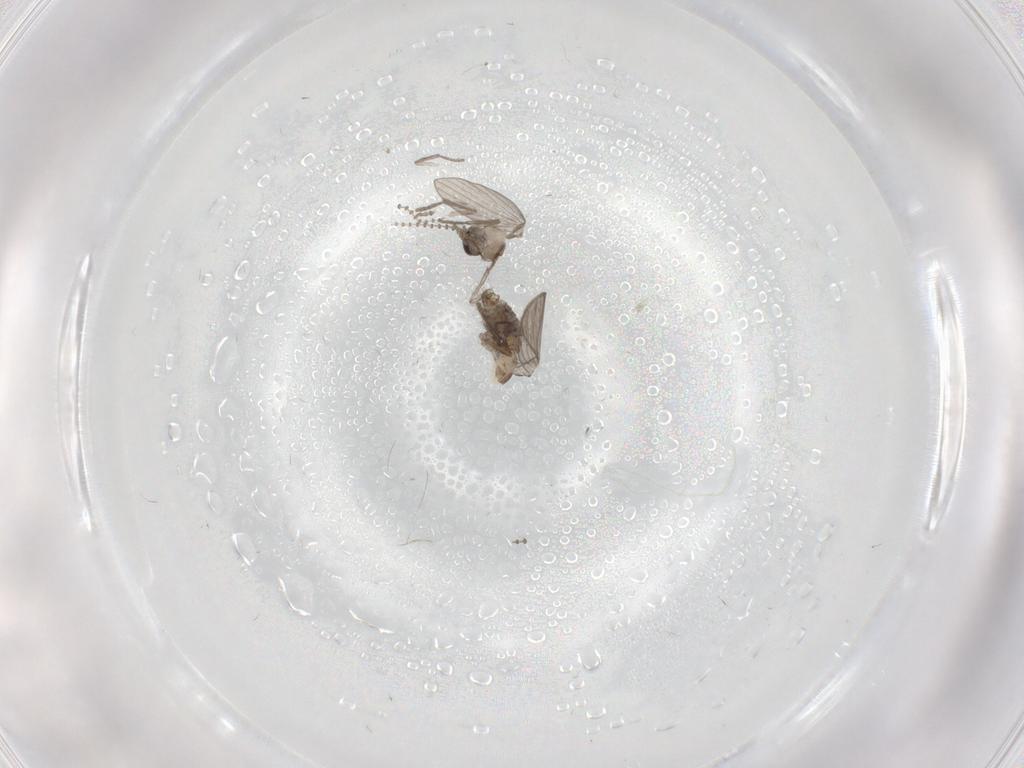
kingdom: Animalia
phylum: Arthropoda
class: Insecta
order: Diptera
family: Psychodidae
